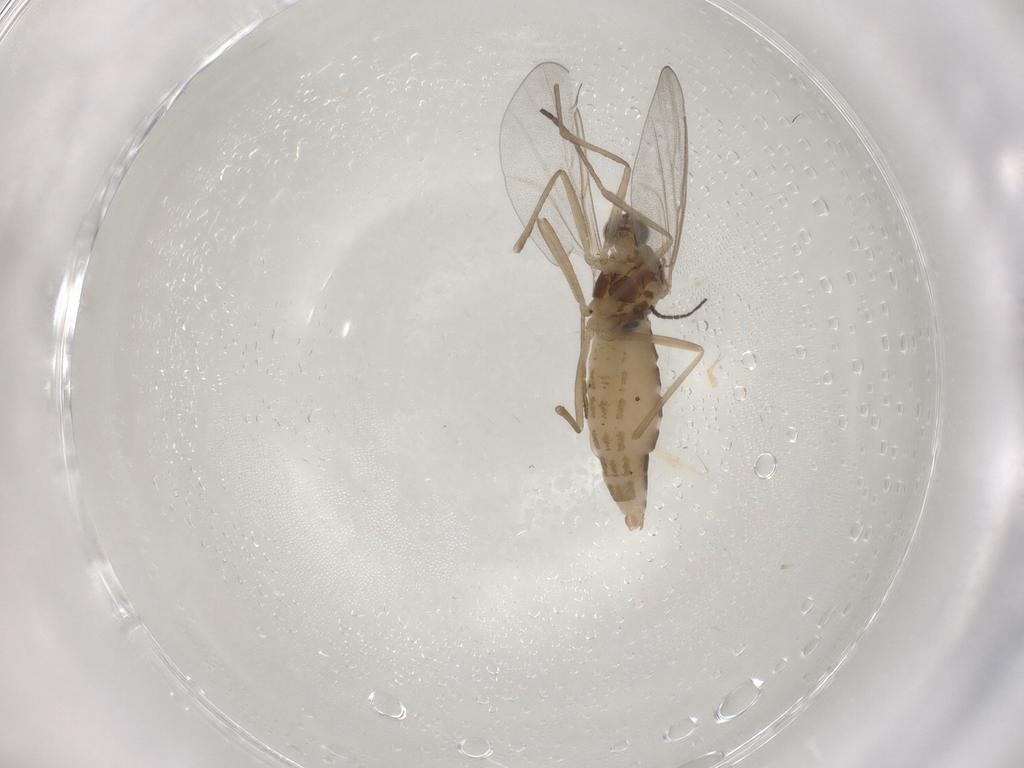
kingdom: Animalia
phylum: Arthropoda
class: Insecta
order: Diptera
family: Cecidomyiidae
